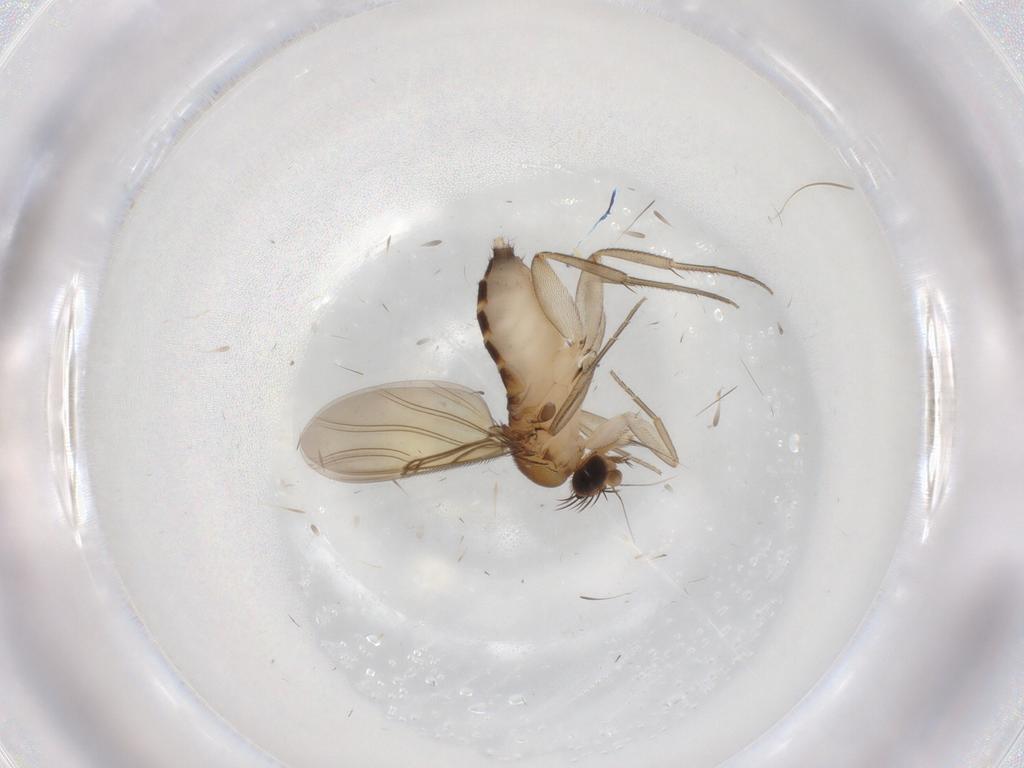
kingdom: Animalia
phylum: Arthropoda
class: Insecta
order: Diptera
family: Phoridae
